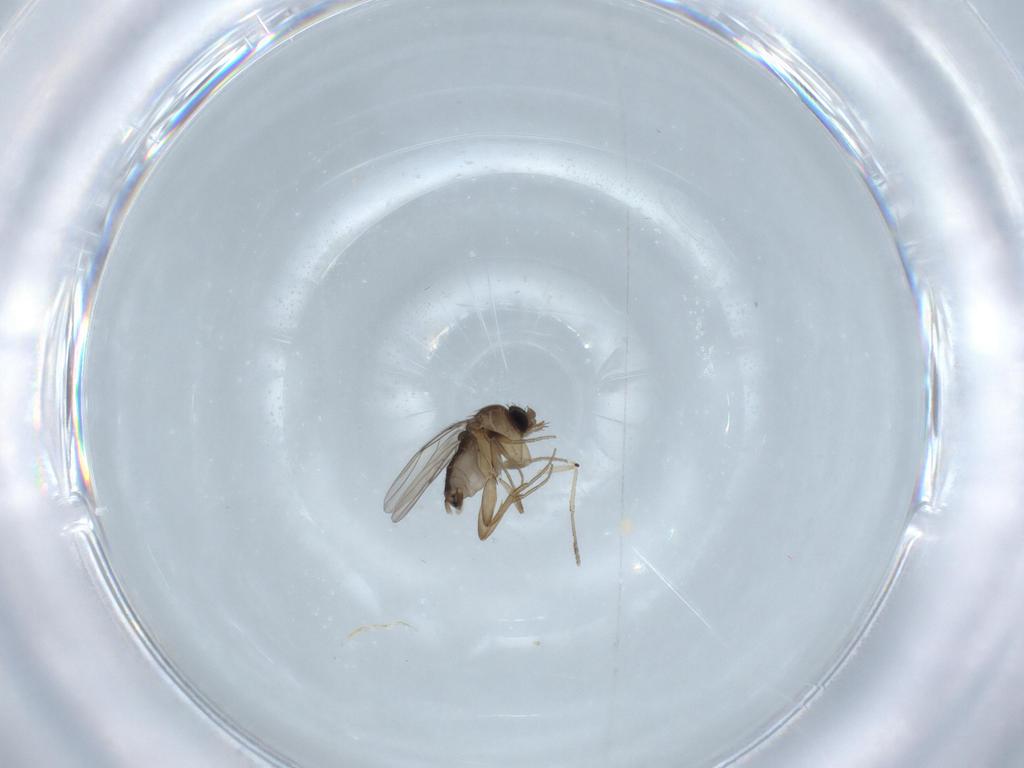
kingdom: Animalia
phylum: Arthropoda
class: Insecta
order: Diptera
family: Phoridae
